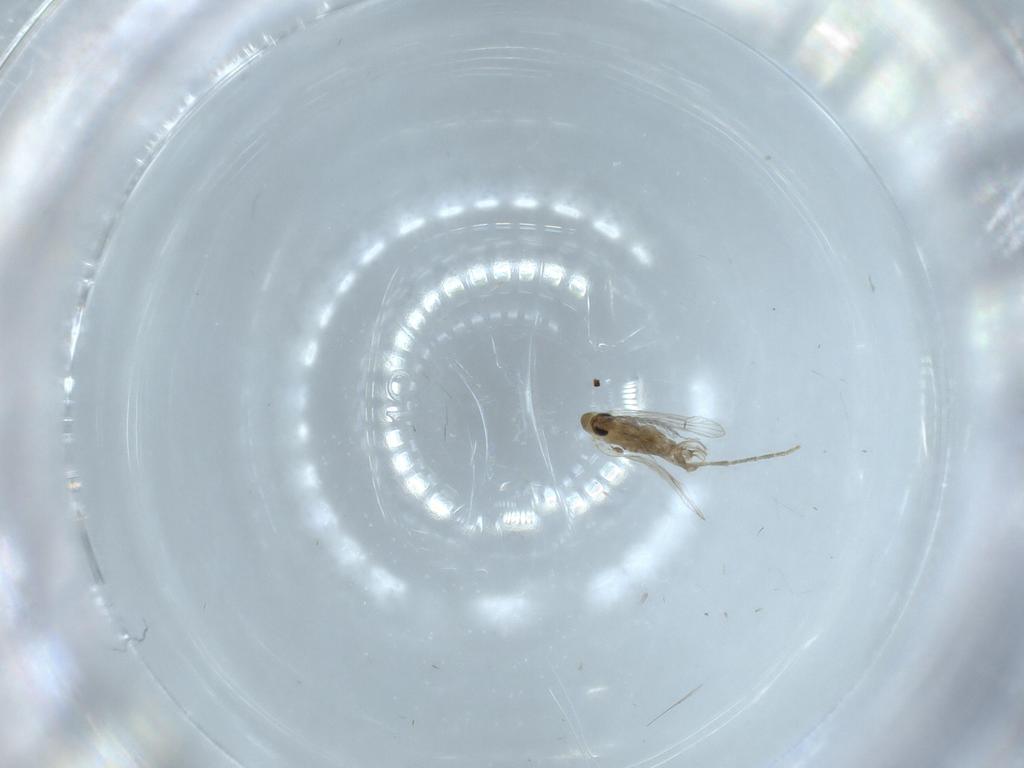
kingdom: Animalia
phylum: Arthropoda
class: Insecta
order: Diptera
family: Psychodidae
